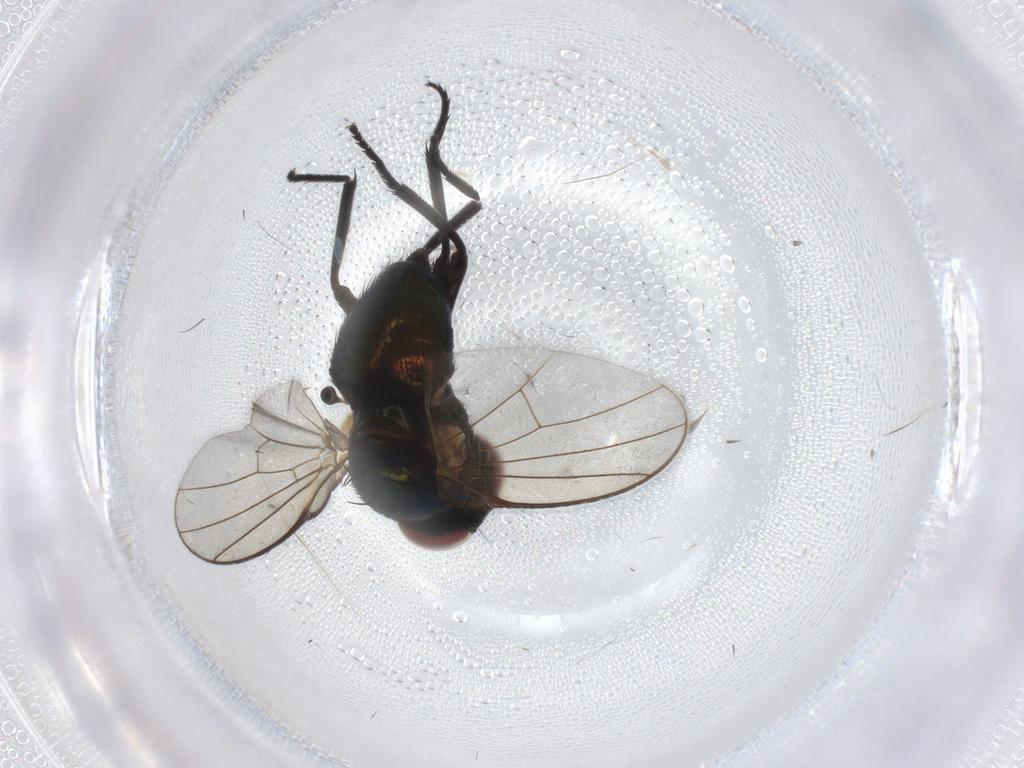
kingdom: Animalia
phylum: Arthropoda
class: Insecta
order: Diptera
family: Agromyzidae
